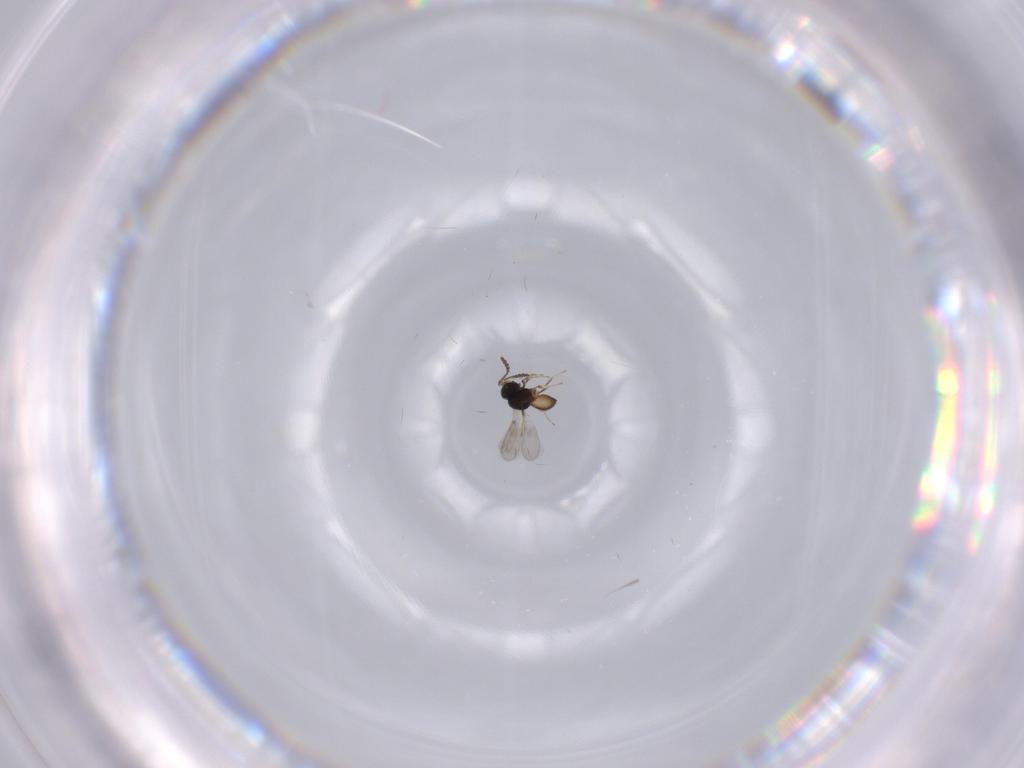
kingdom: Animalia
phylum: Arthropoda
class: Insecta
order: Hymenoptera
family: Scelionidae
